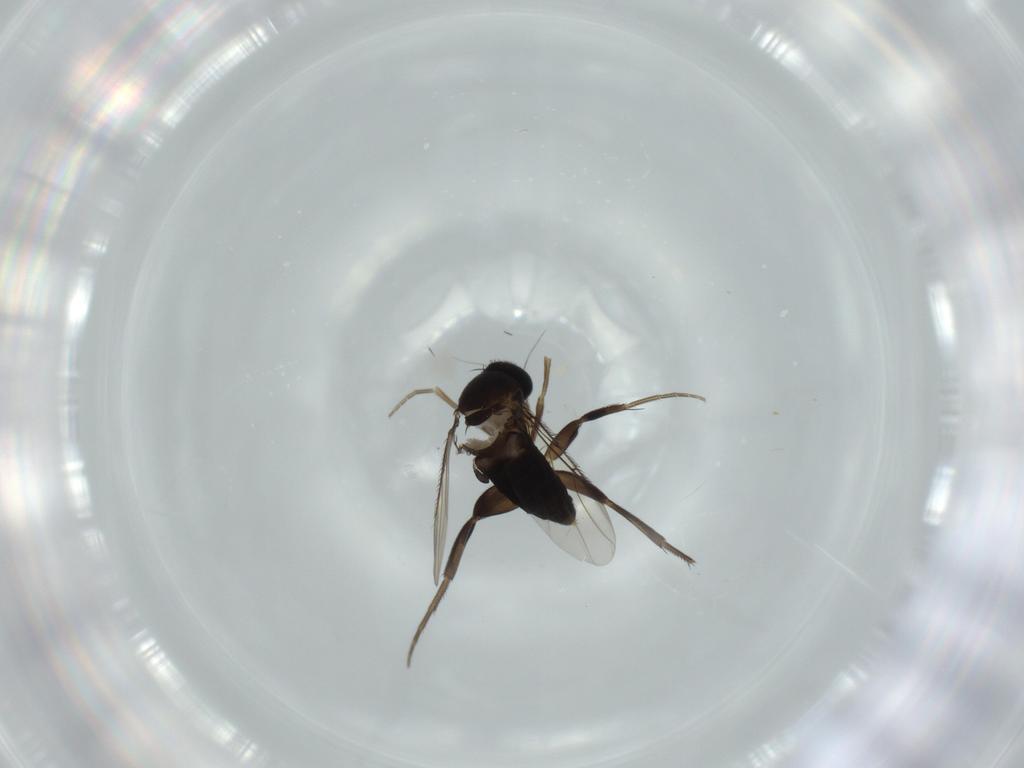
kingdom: Animalia
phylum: Arthropoda
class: Insecta
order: Diptera
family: Phoridae
